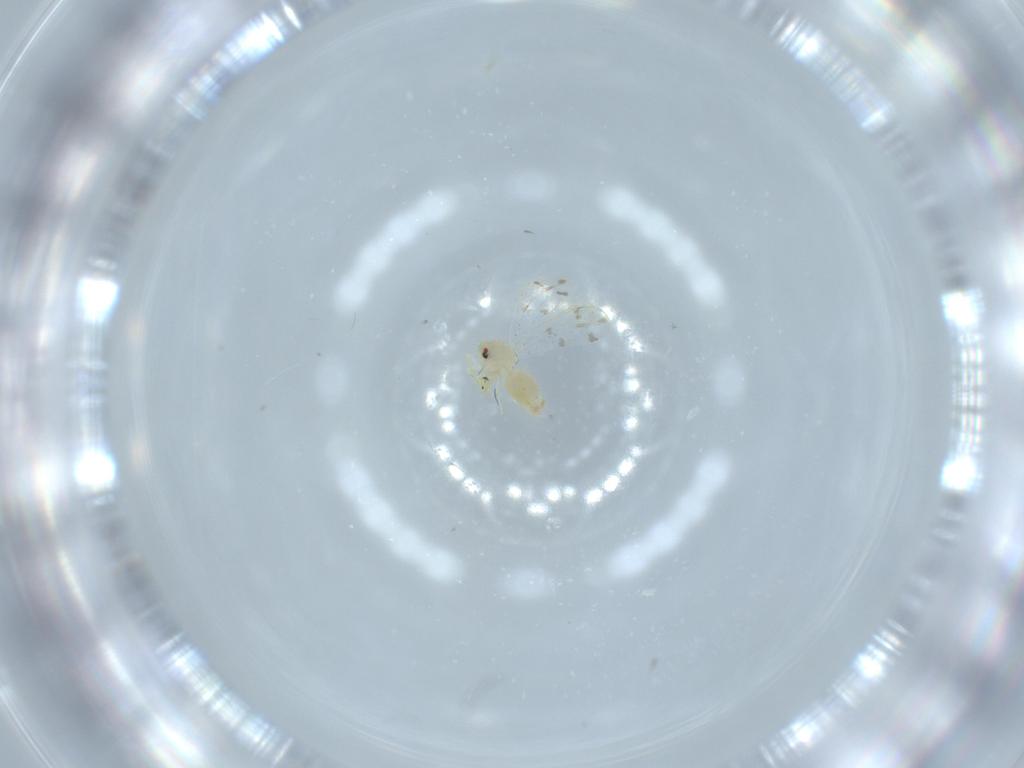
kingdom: Animalia
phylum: Arthropoda
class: Insecta
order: Hemiptera
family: Aleyrodidae
